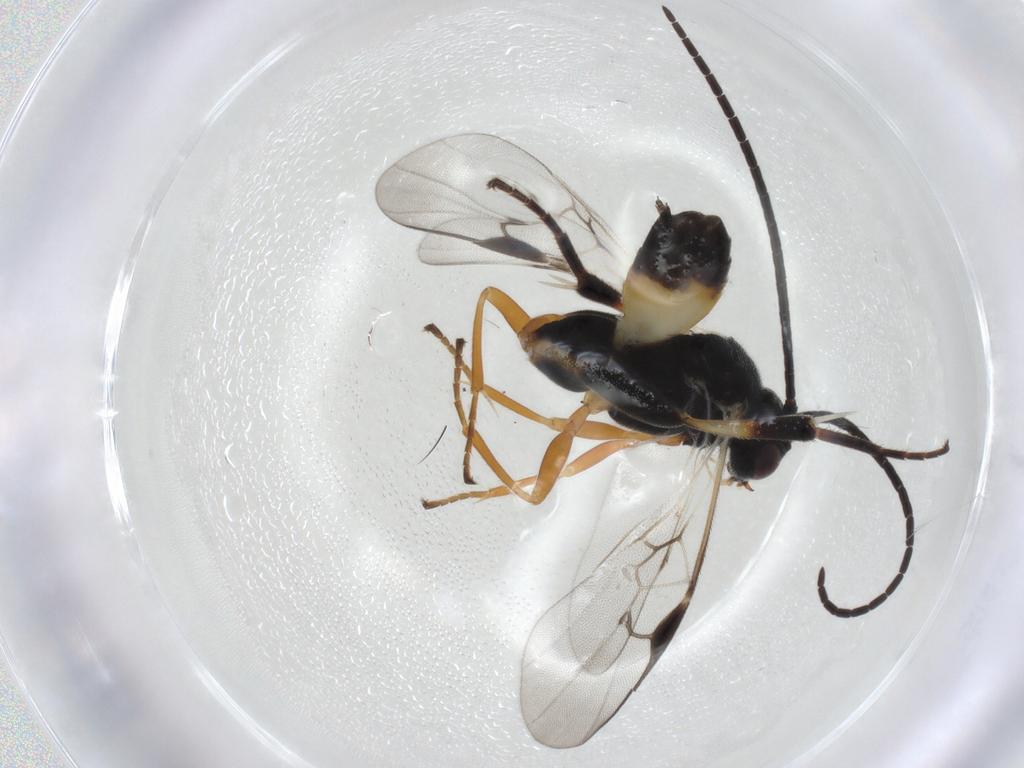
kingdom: Animalia
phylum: Arthropoda
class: Insecta
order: Hymenoptera
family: Braconidae
